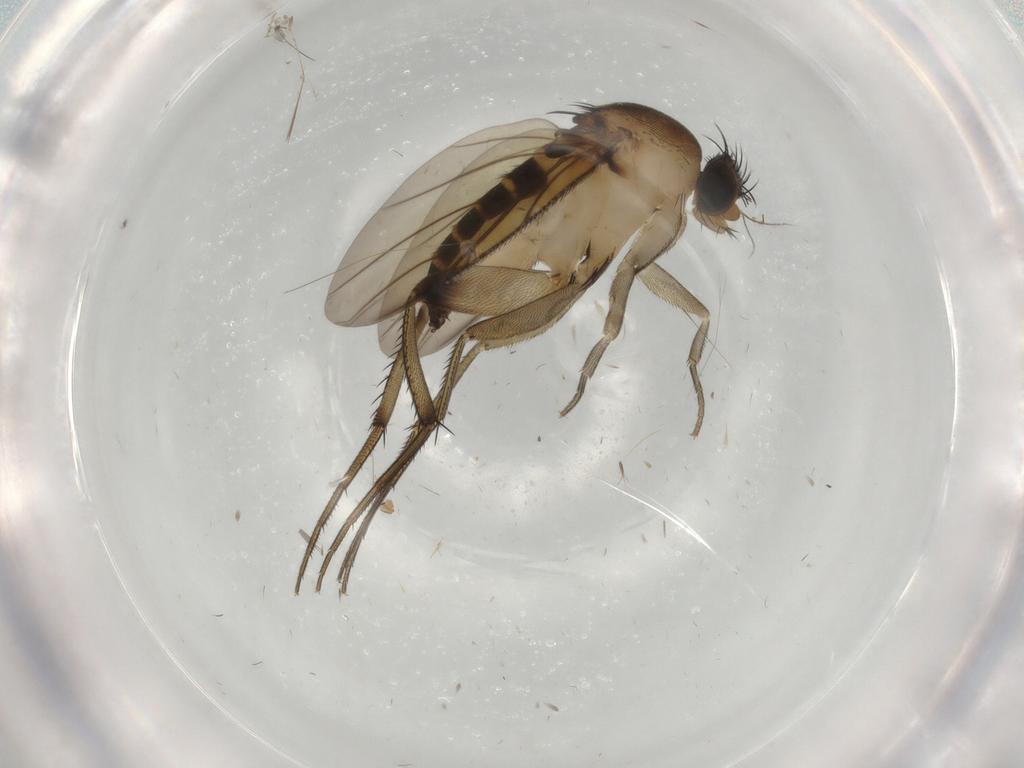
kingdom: Animalia
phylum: Arthropoda
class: Insecta
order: Diptera
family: Phoridae
